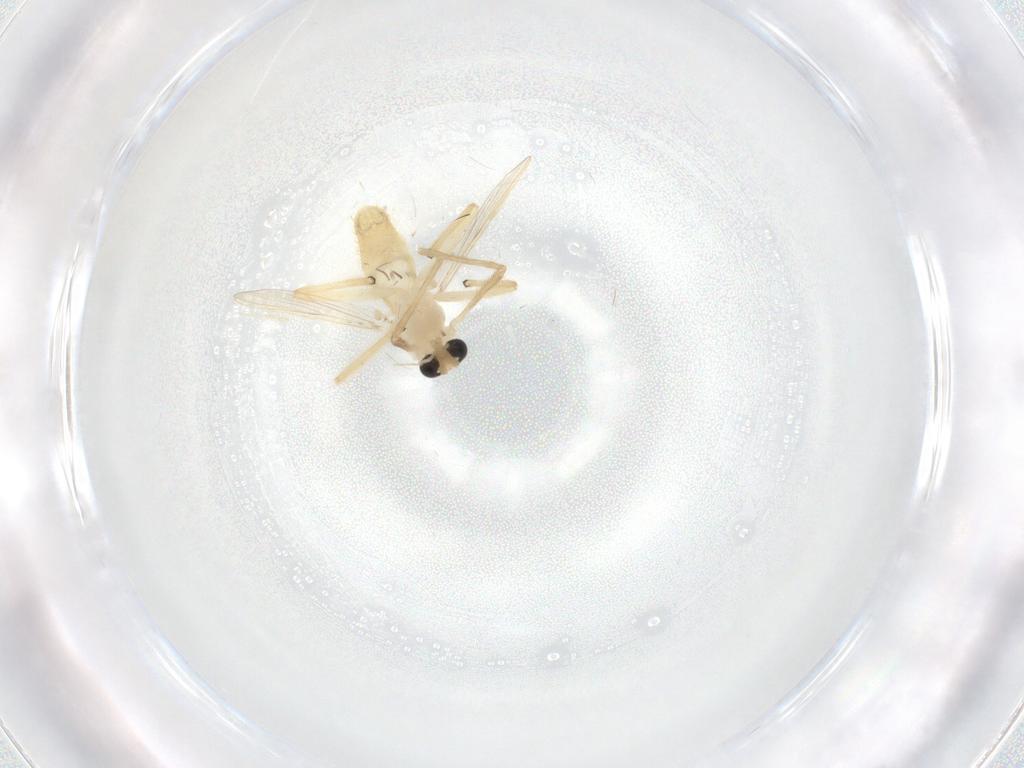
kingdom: Animalia
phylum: Arthropoda
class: Insecta
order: Diptera
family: Chironomidae
